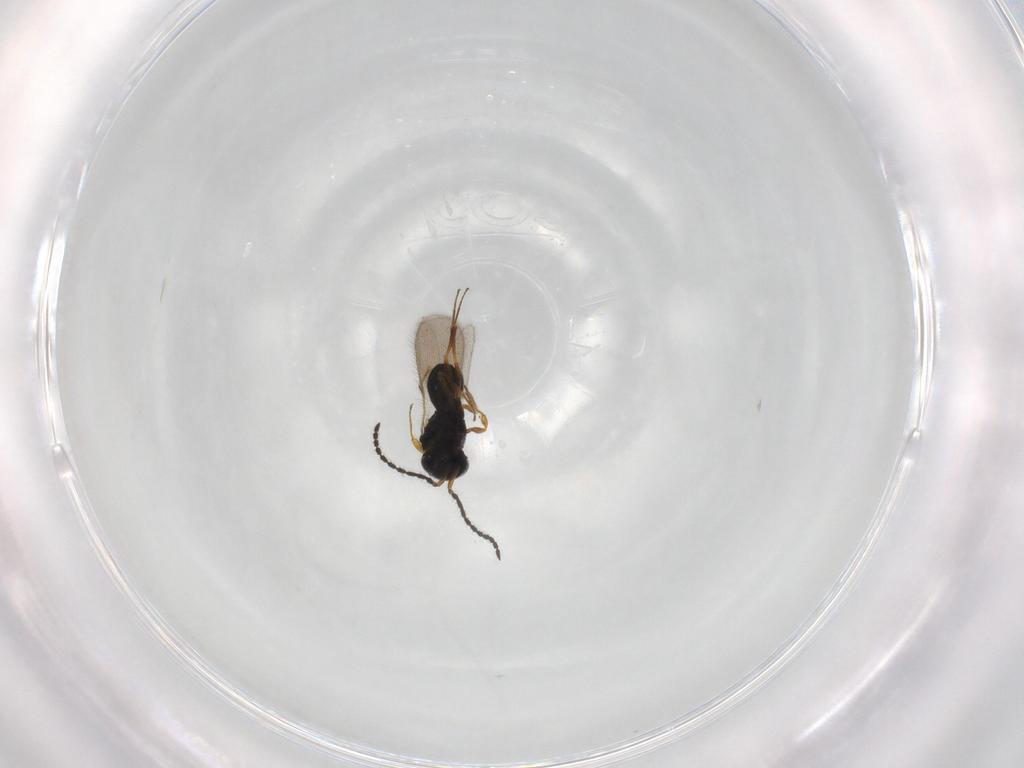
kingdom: Animalia
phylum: Arthropoda
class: Insecta
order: Hymenoptera
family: Scelionidae
